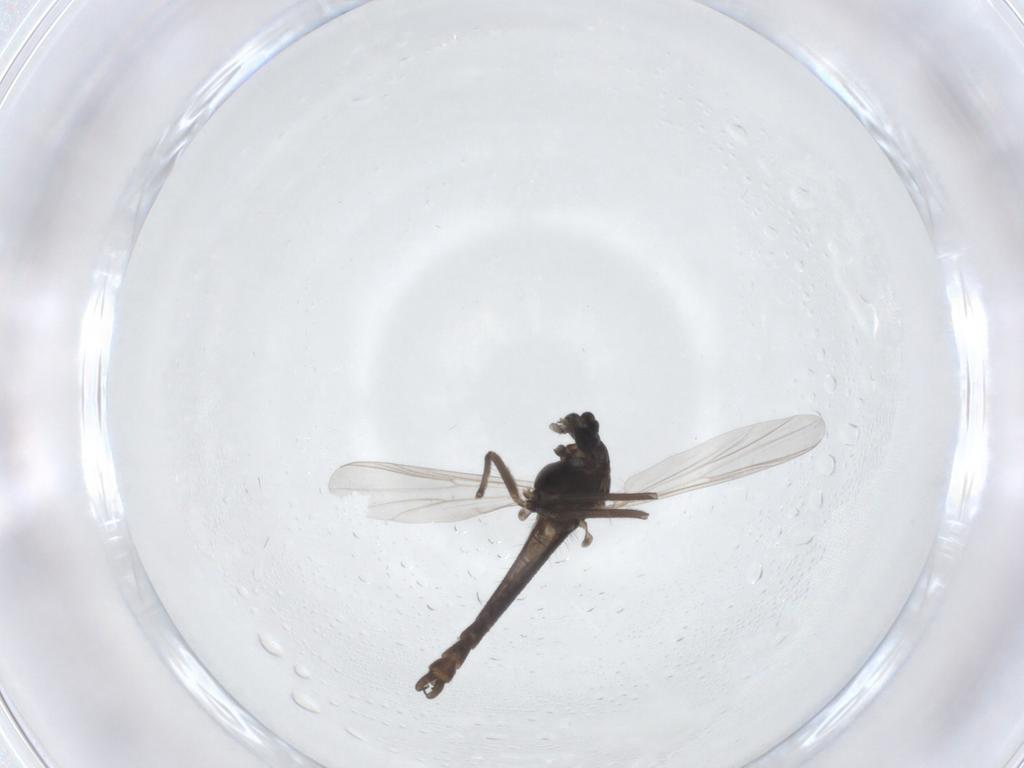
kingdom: Animalia
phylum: Arthropoda
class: Insecta
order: Diptera
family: Chironomidae
